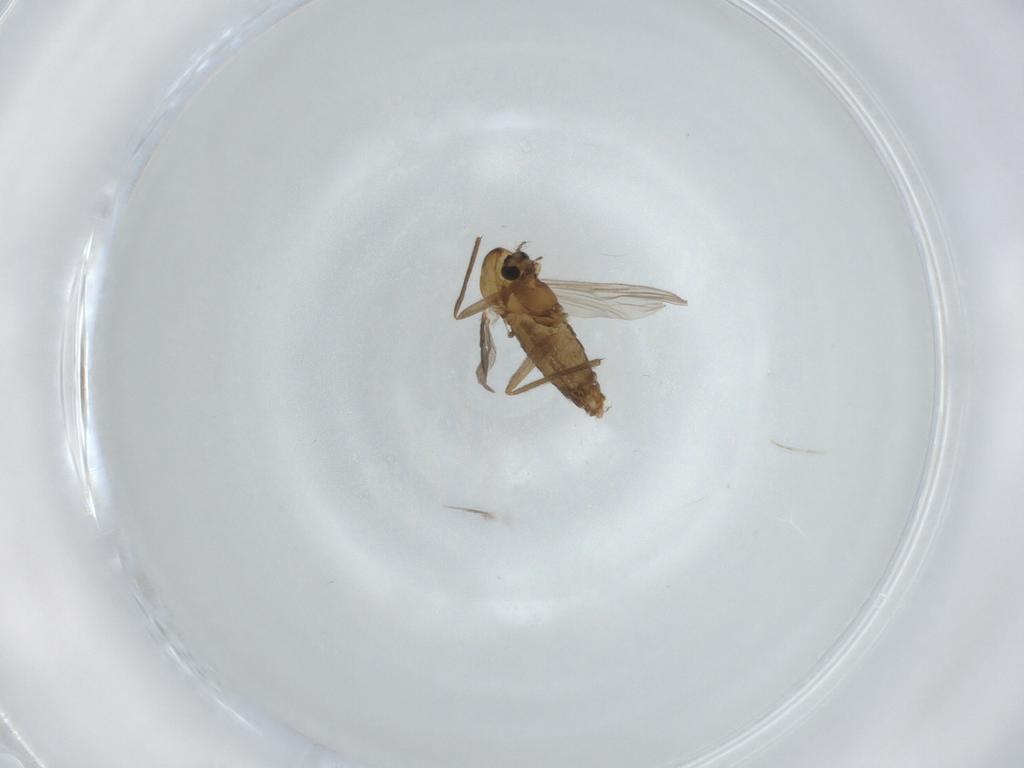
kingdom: Animalia
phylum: Arthropoda
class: Insecta
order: Diptera
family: Chironomidae
